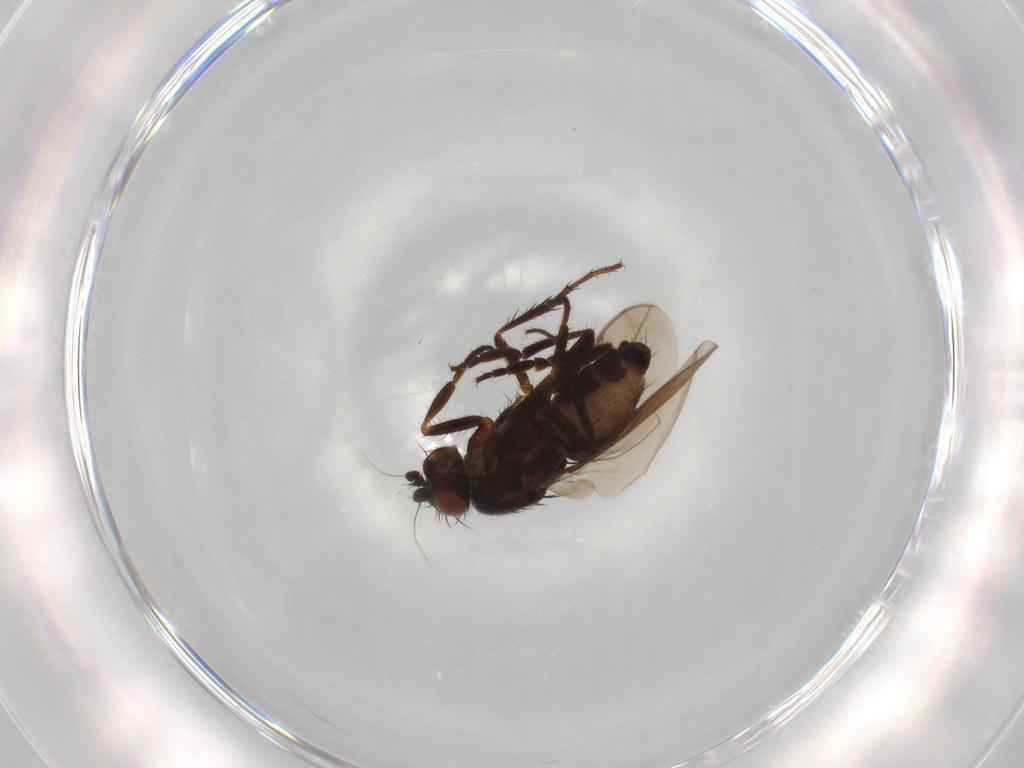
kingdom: Animalia
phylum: Arthropoda
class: Insecta
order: Diptera
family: Sphaeroceridae
